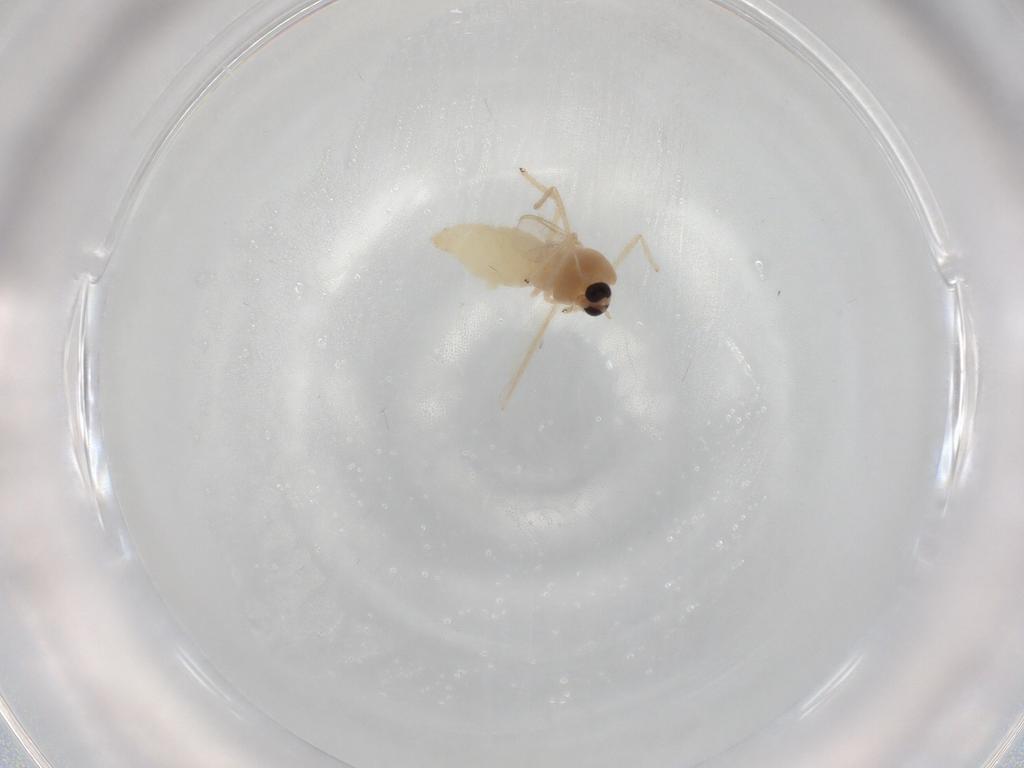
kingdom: Animalia
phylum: Arthropoda
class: Insecta
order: Diptera
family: Chironomidae
